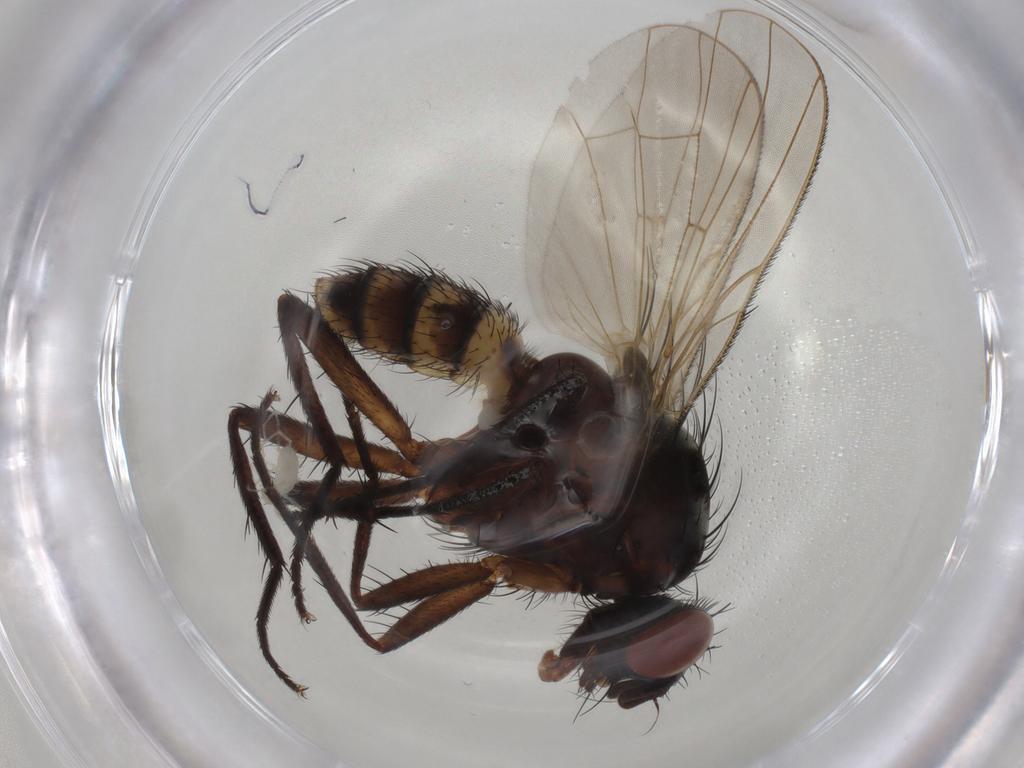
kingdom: Animalia
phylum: Arthropoda
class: Insecta
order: Diptera
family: Anthomyiidae
